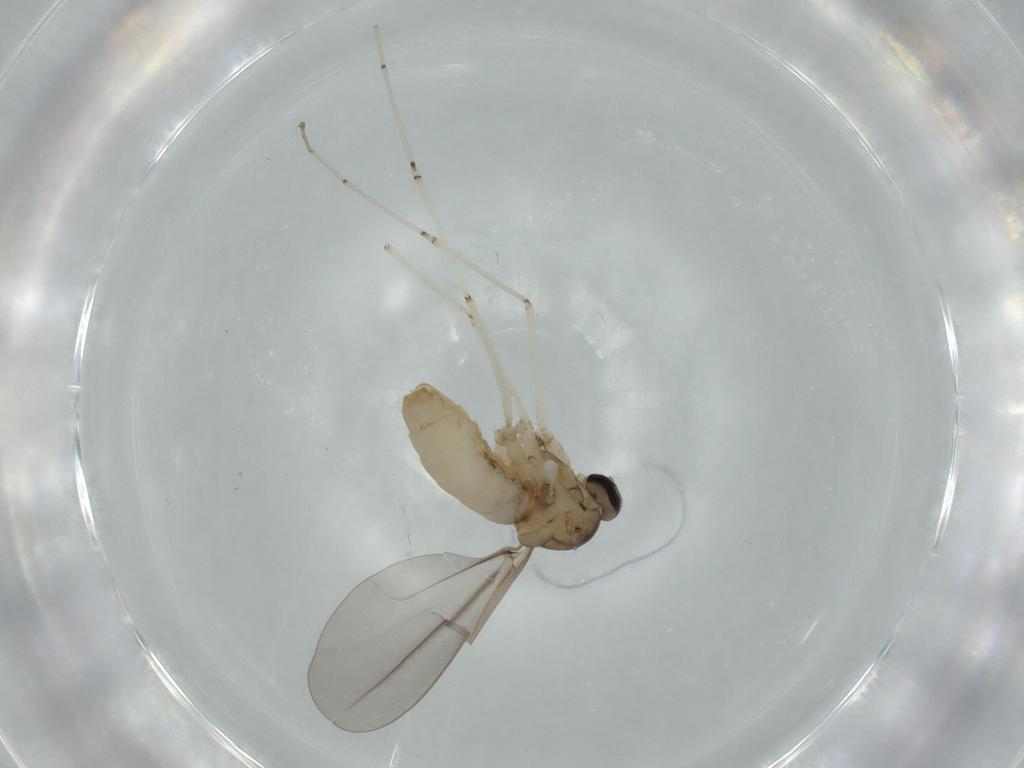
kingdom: Animalia
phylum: Arthropoda
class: Insecta
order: Diptera
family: Cecidomyiidae
